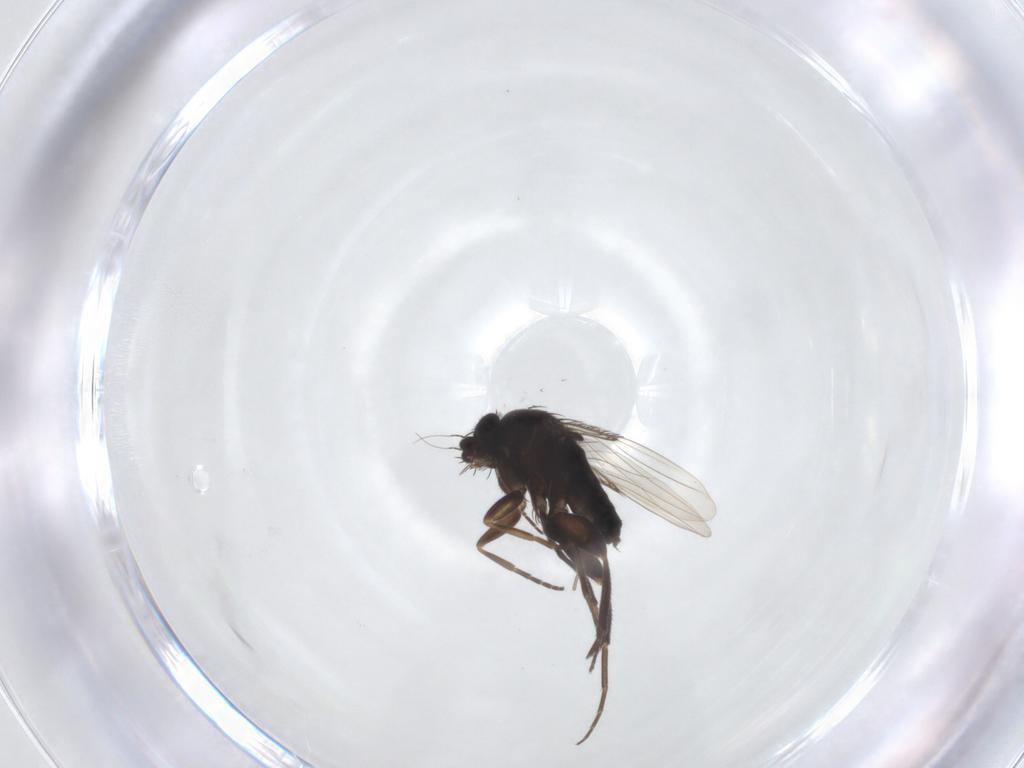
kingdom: Animalia
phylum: Arthropoda
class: Insecta
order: Diptera
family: Phoridae
